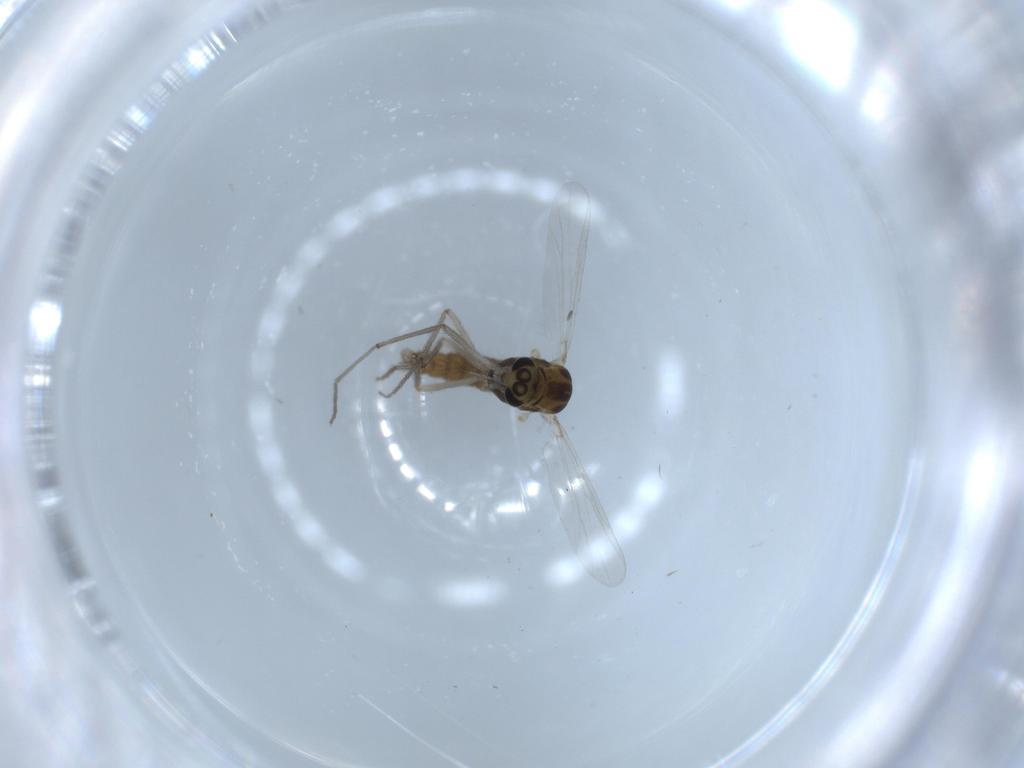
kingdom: Animalia
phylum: Arthropoda
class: Insecta
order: Diptera
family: Chironomidae
